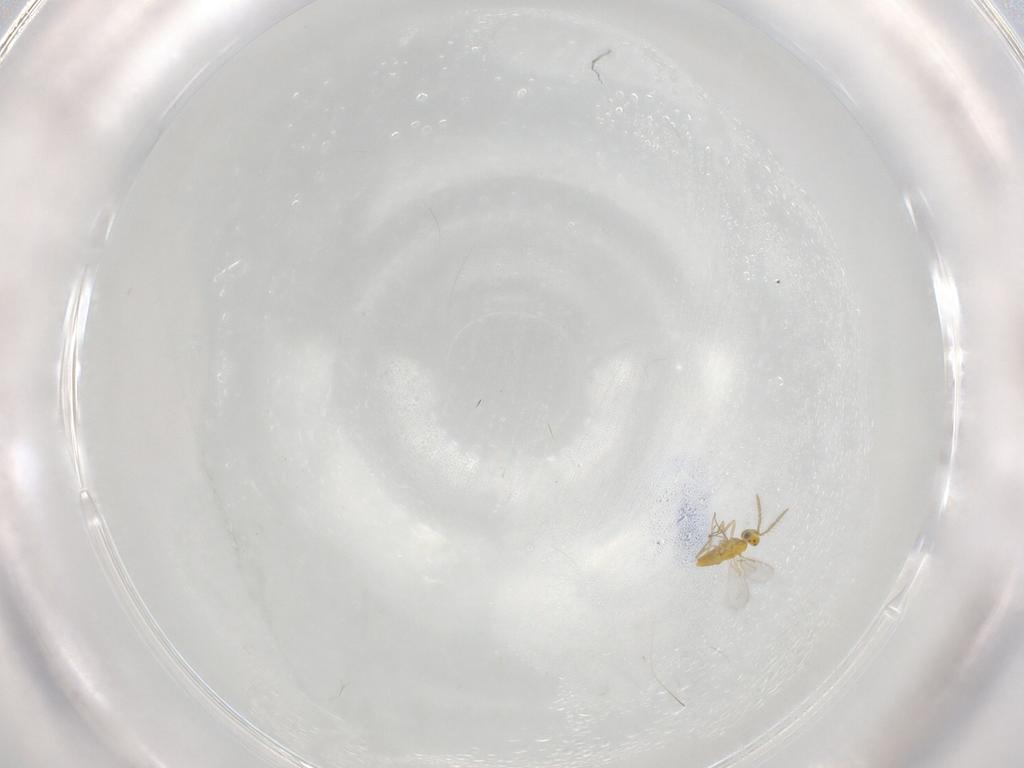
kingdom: Animalia
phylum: Arthropoda
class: Insecta
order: Hymenoptera
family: Aphelinidae
